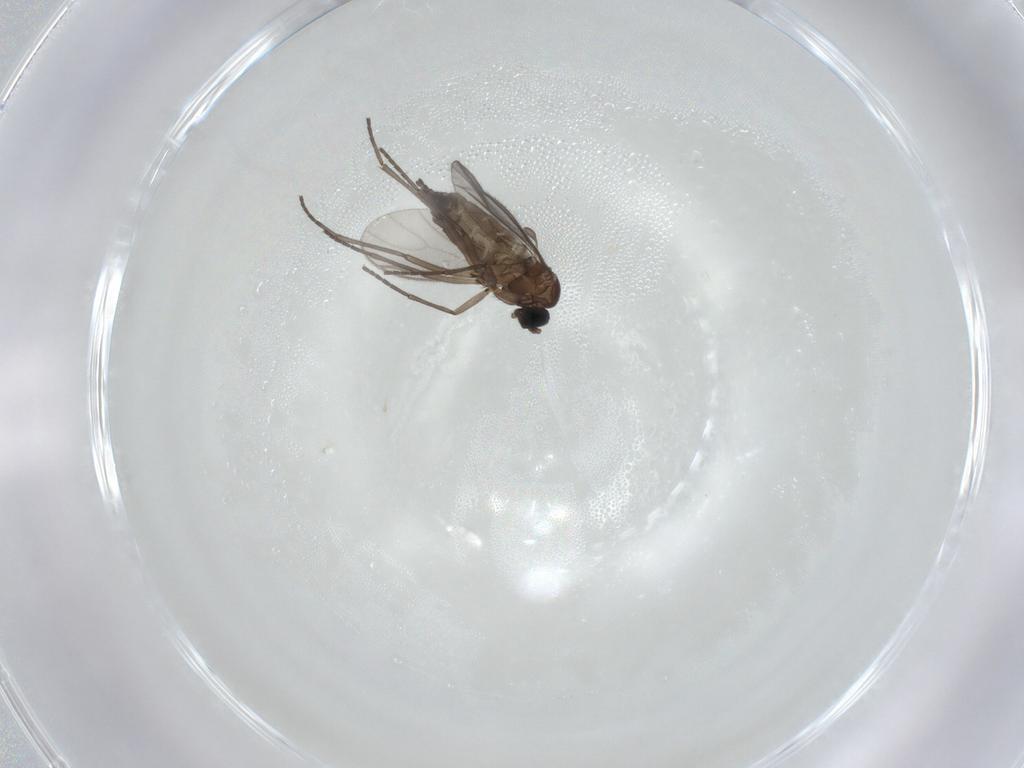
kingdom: Animalia
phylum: Arthropoda
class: Insecta
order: Diptera
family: Sciaridae
